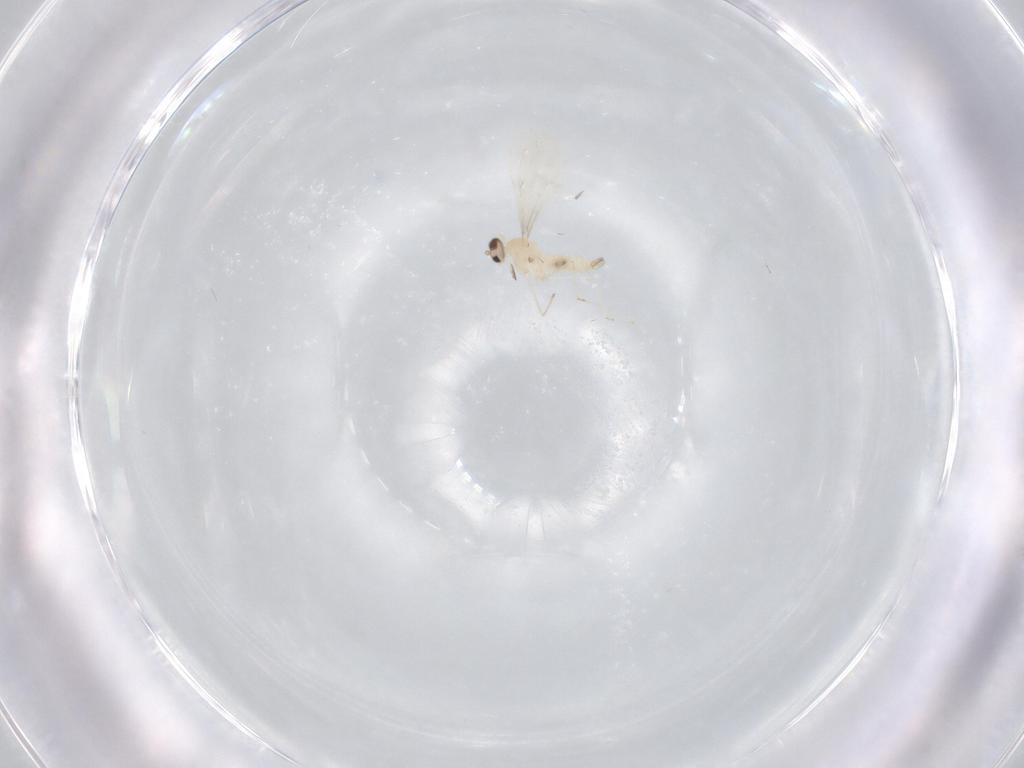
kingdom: Animalia
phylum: Arthropoda
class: Insecta
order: Diptera
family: Cecidomyiidae
